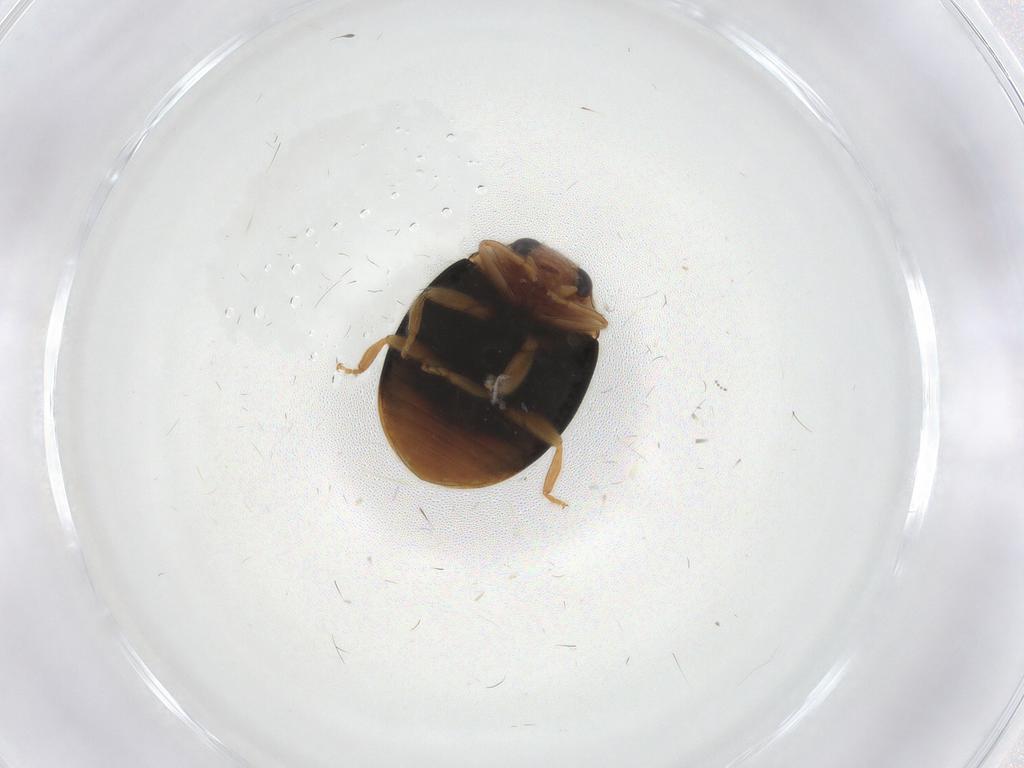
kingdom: Animalia
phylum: Arthropoda
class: Insecta
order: Coleoptera
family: Coccinellidae
